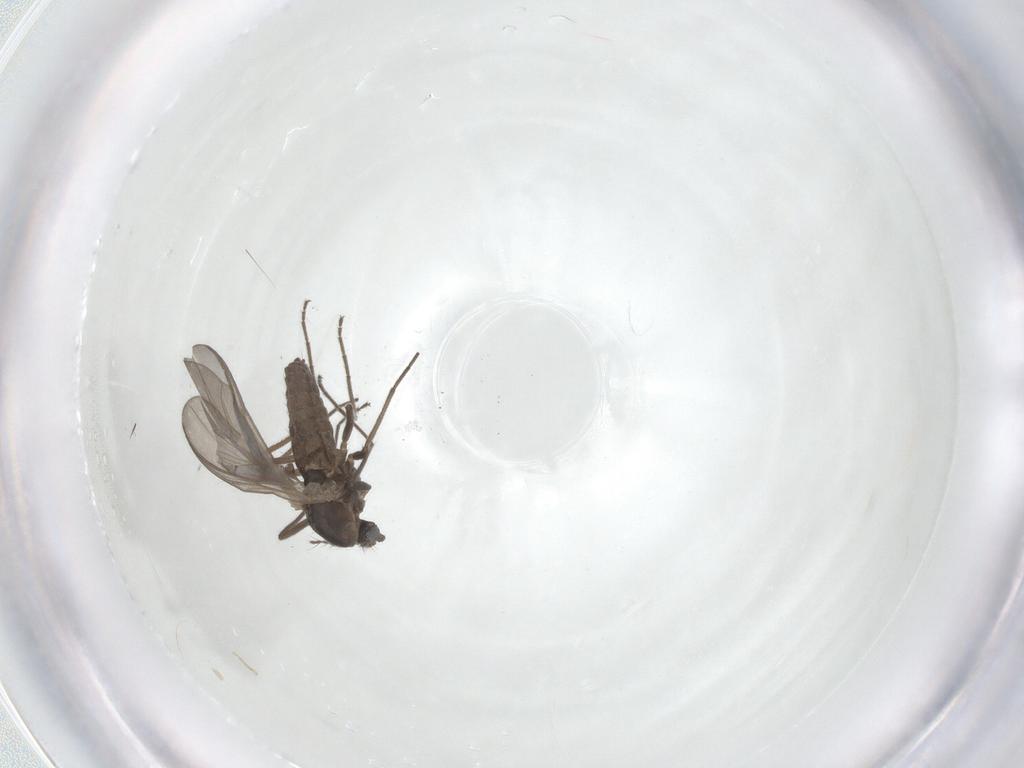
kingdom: Animalia
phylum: Arthropoda
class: Insecta
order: Diptera
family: Chironomidae
